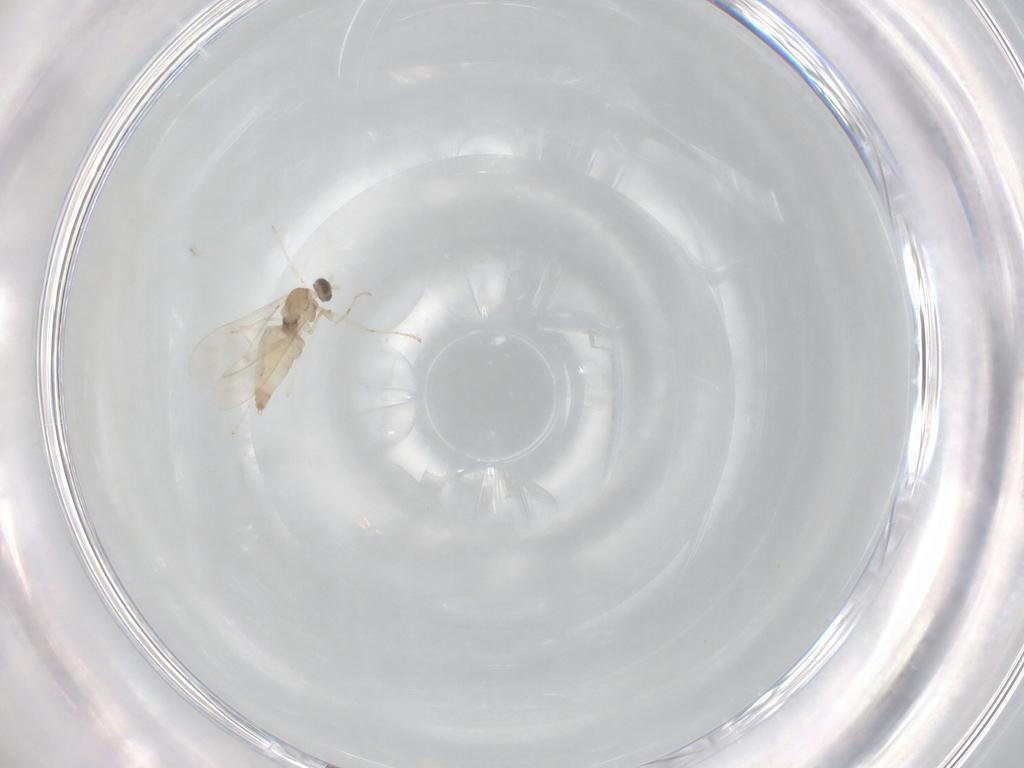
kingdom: Animalia
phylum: Arthropoda
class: Insecta
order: Diptera
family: Cecidomyiidae
